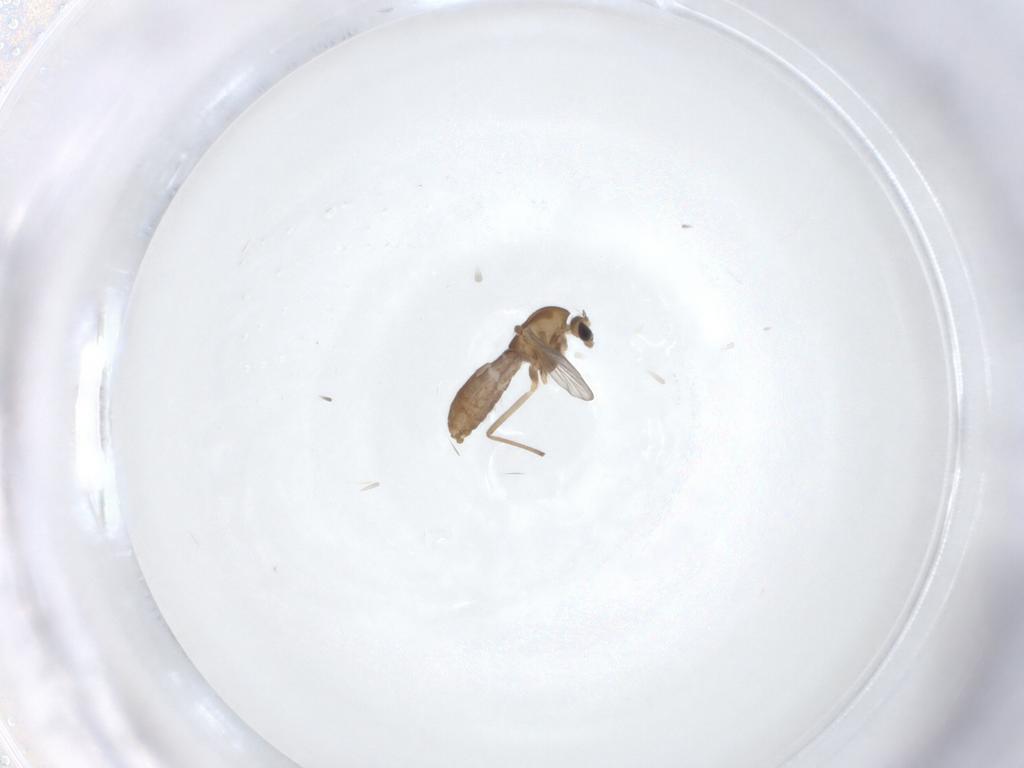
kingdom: Animalia
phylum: Arthropoda
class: Insecta
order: Diptera
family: Chironomidae
